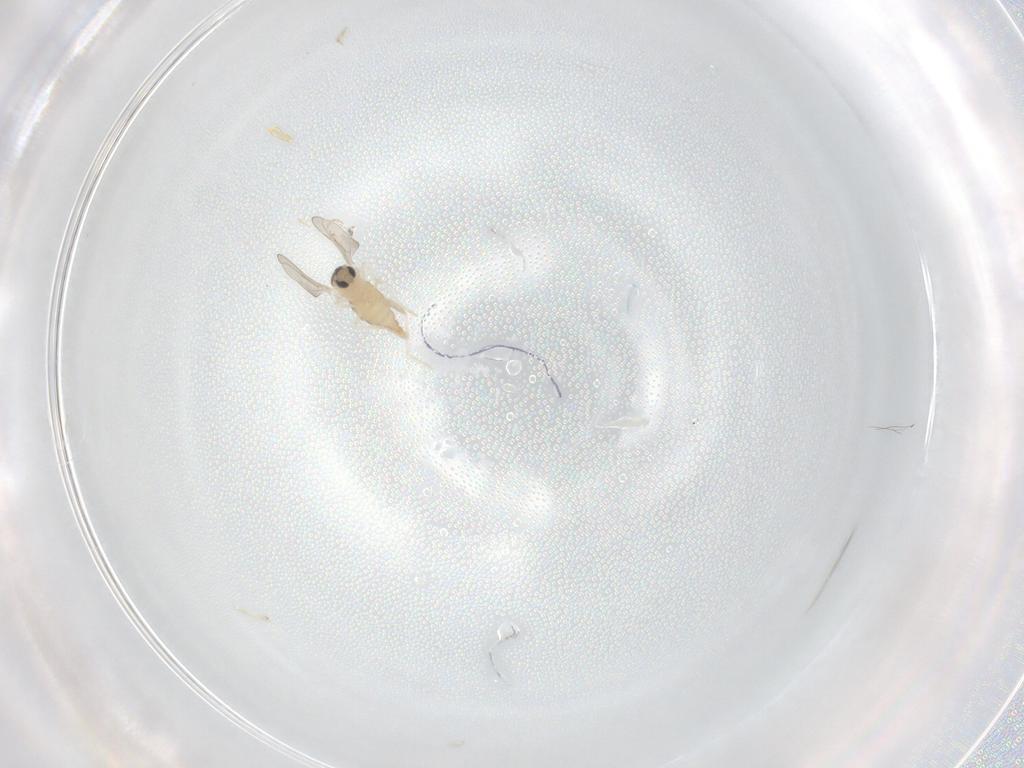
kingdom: Animalia
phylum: Arthropoda
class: Insecta
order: Diptera
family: Cecidomyiidae
